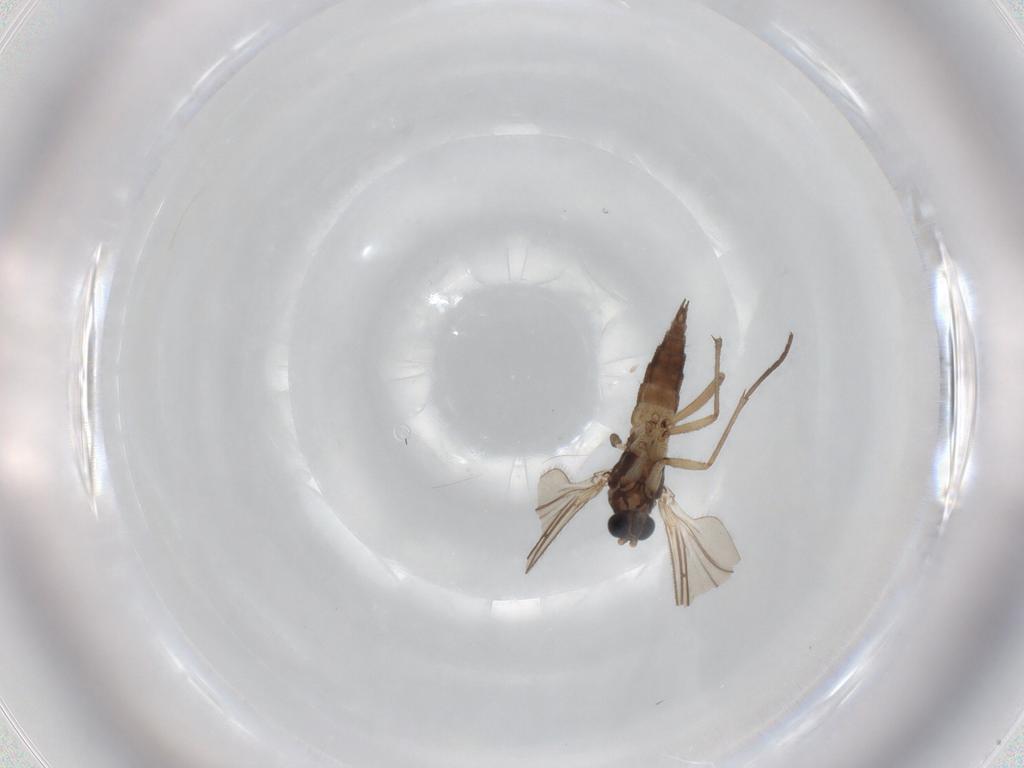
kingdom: Animalia
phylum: Arthropoda
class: Insecta
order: Diptera
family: Sciaridae
